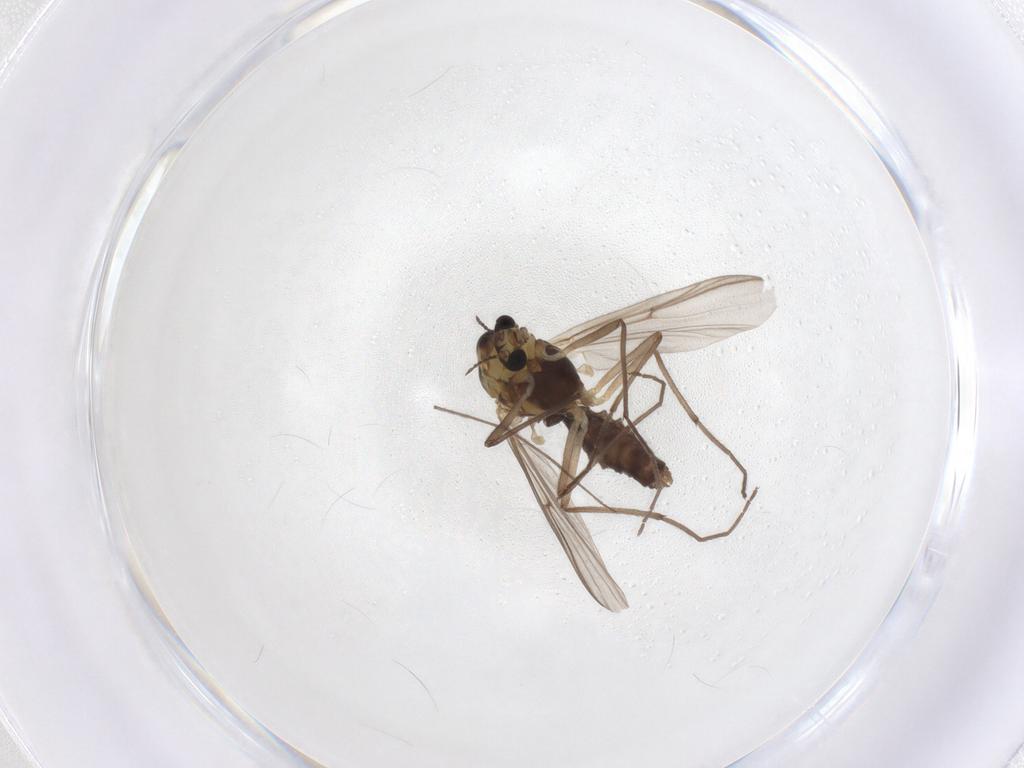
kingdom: Animalia
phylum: Arthropoda
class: Insecta
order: Diptera
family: Chironomidae
